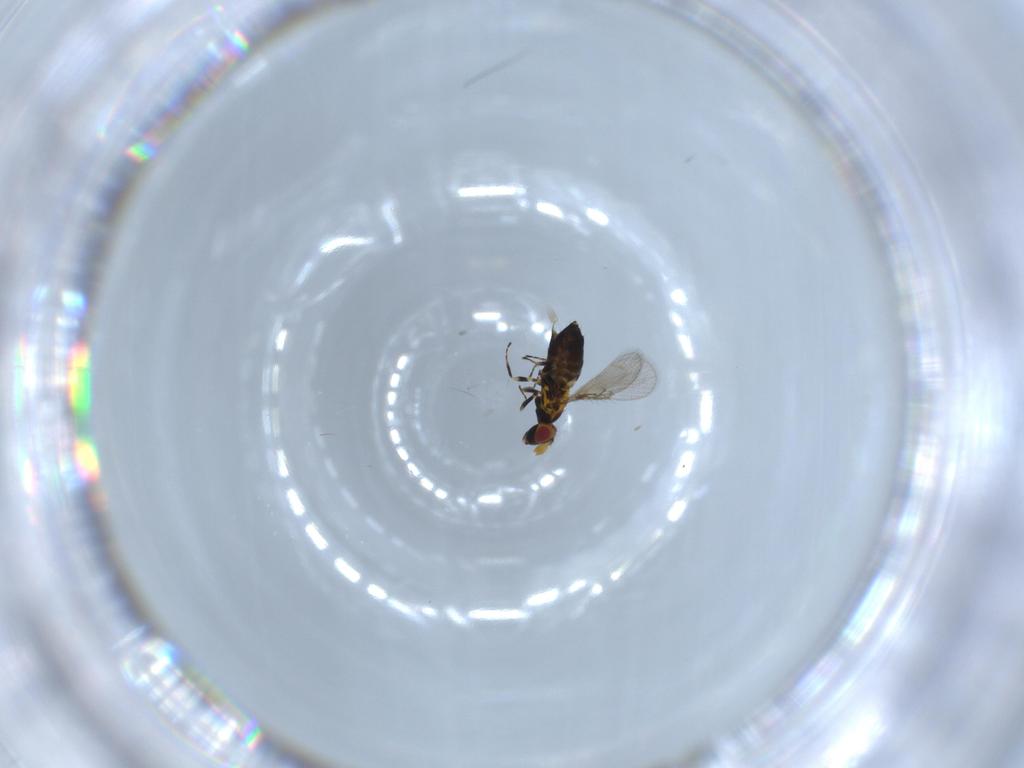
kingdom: Animalia
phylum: Arthropoda
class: Insecta
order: Hymenoptera
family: Trichogrammatidae
